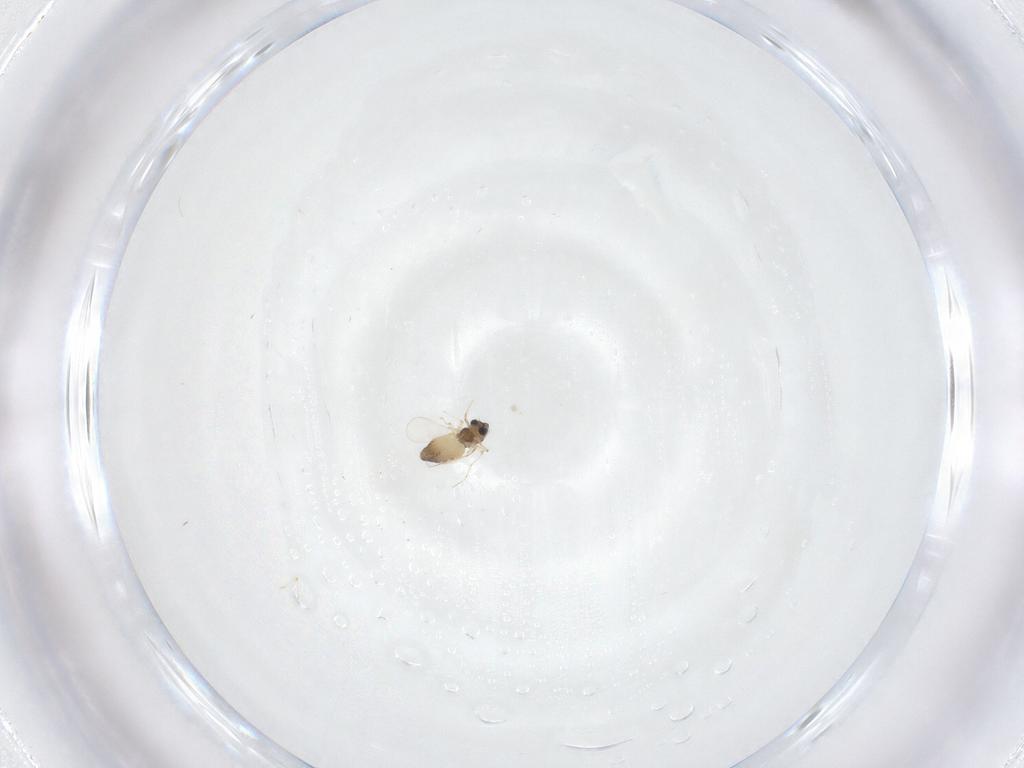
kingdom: Animalia
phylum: Arthropoda
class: Insecta
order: Diptera
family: Chironomidae
